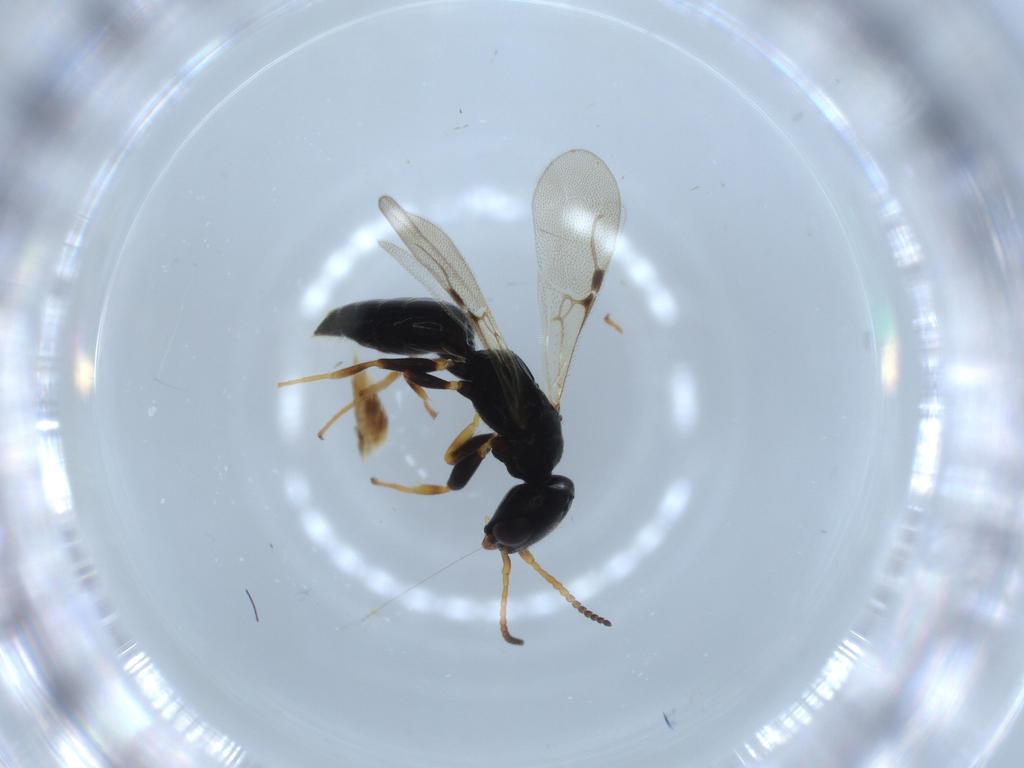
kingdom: Animalia
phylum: Arthropoda
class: Insecta
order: Hymenoptera
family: Bethylidae
